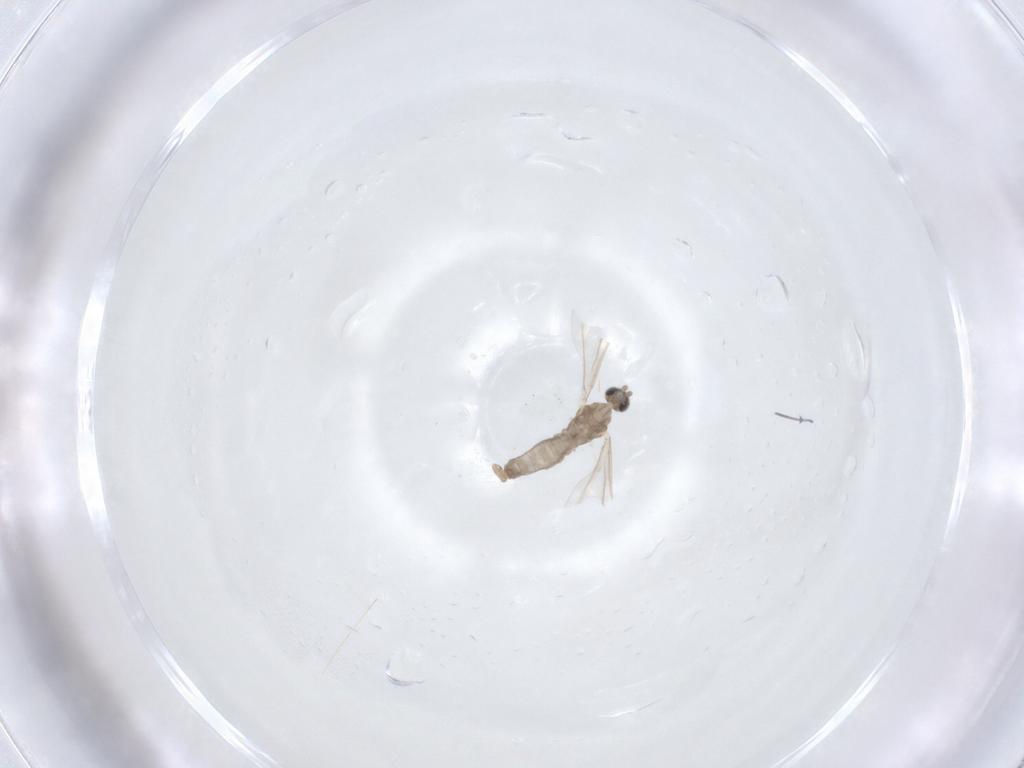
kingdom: Animalia
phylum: Arthropoda
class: Insecta
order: Diptera
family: Cecidomyiidae
